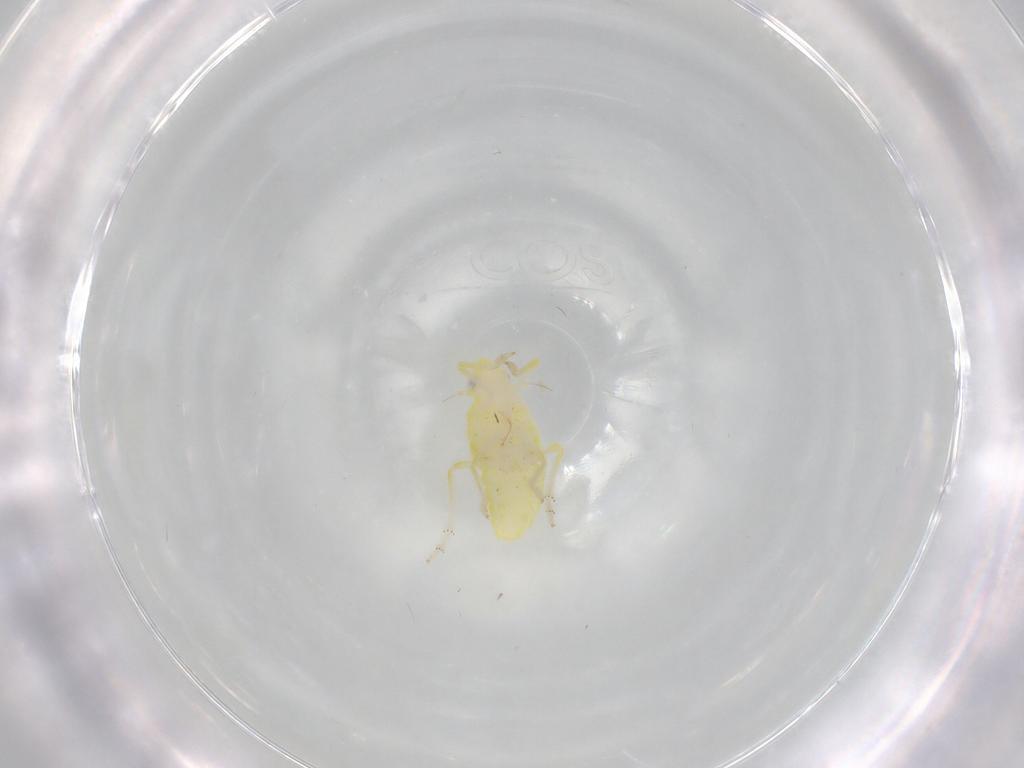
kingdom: Animalia
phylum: Arthropoda
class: Insecta
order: Hemiptera
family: Tropiduchidae
